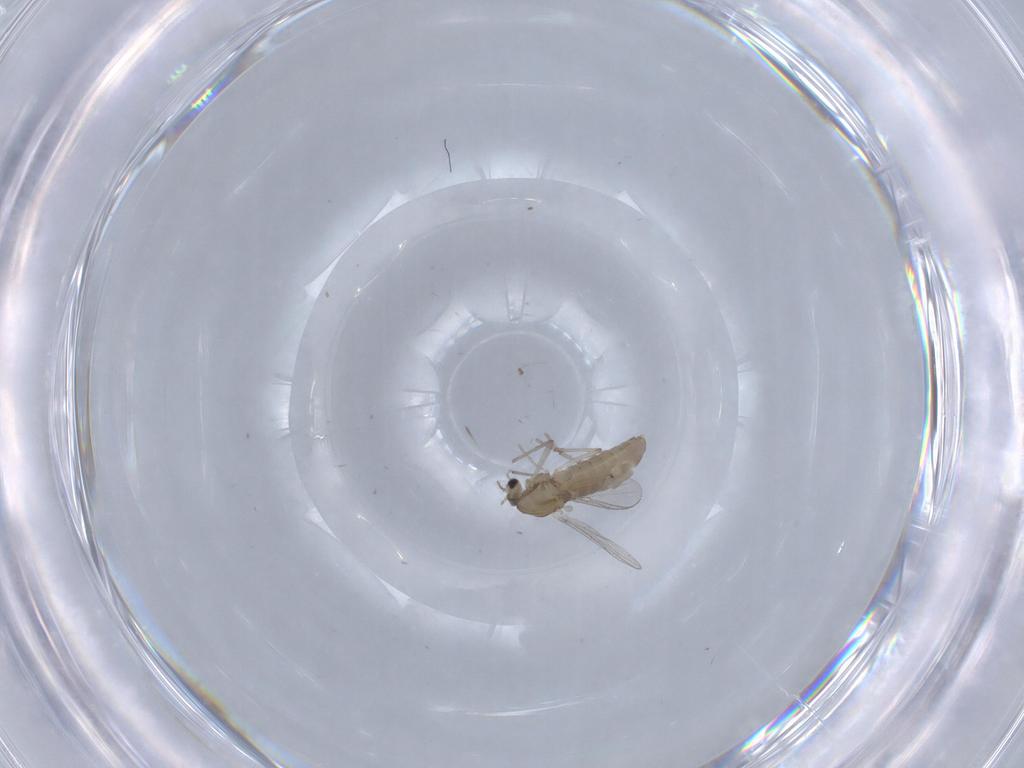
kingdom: Animalia
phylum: Arthropoda
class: Insecta
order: Diptera
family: Chironomidae
